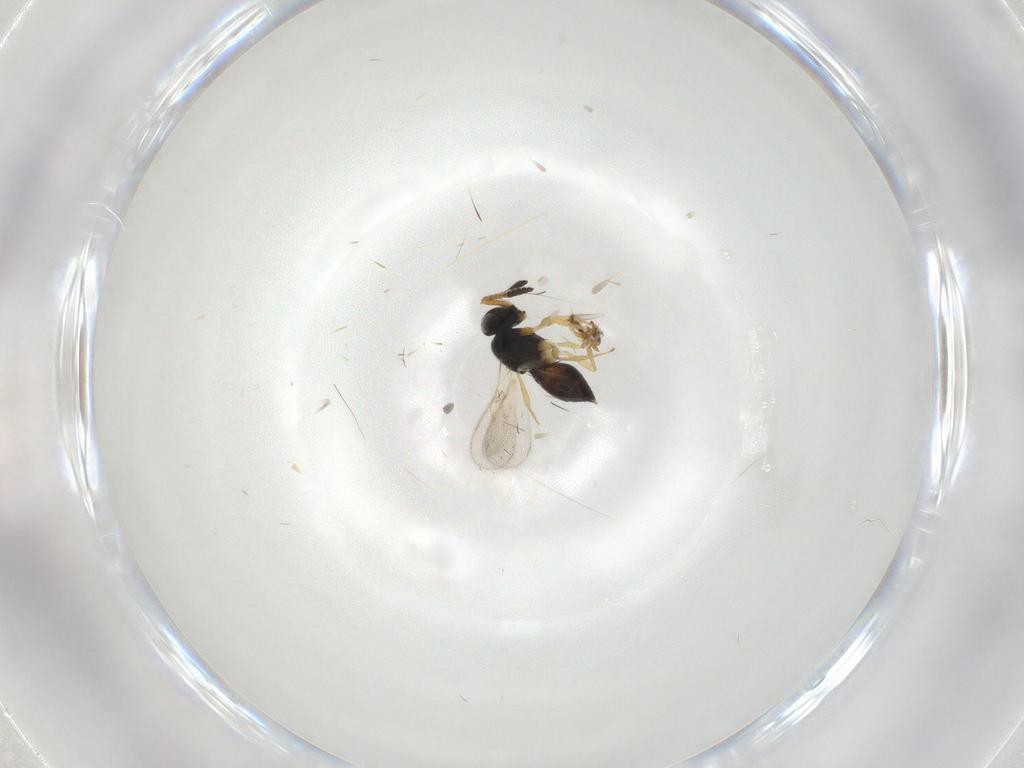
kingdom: Animalia
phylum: Arthropoda
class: Insecta
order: Hymenoptera
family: Scelionidae
